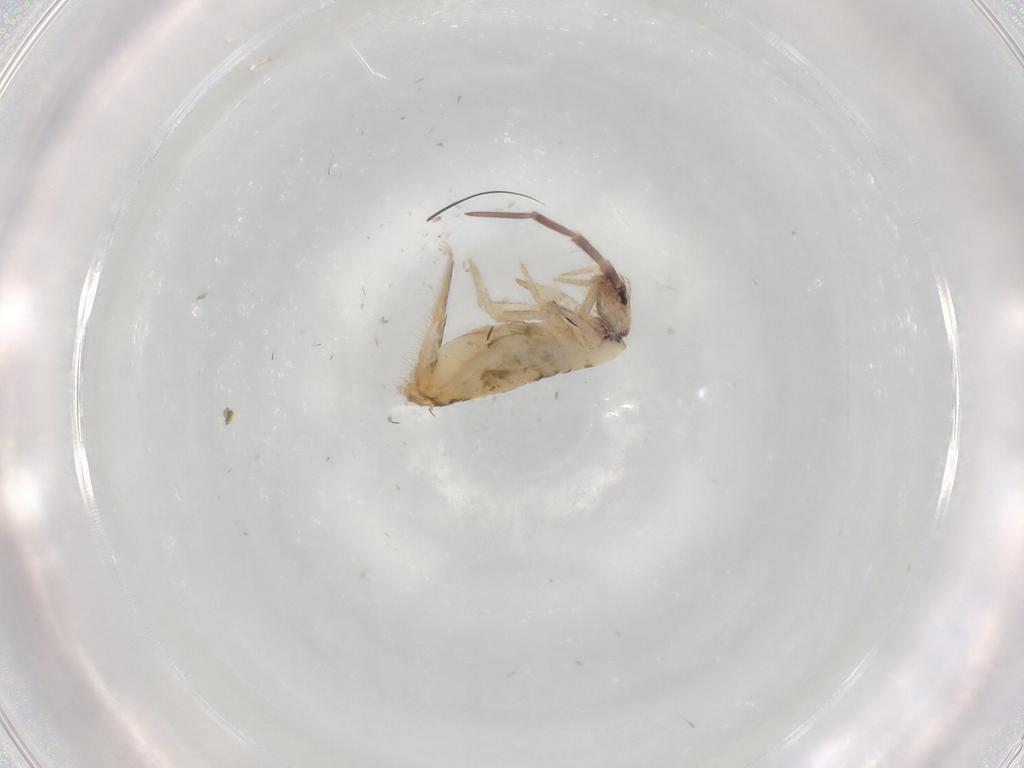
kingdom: Animalia
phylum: Arthropoda
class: Collembola
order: Entomobryomorpha
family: Entomobryidae
